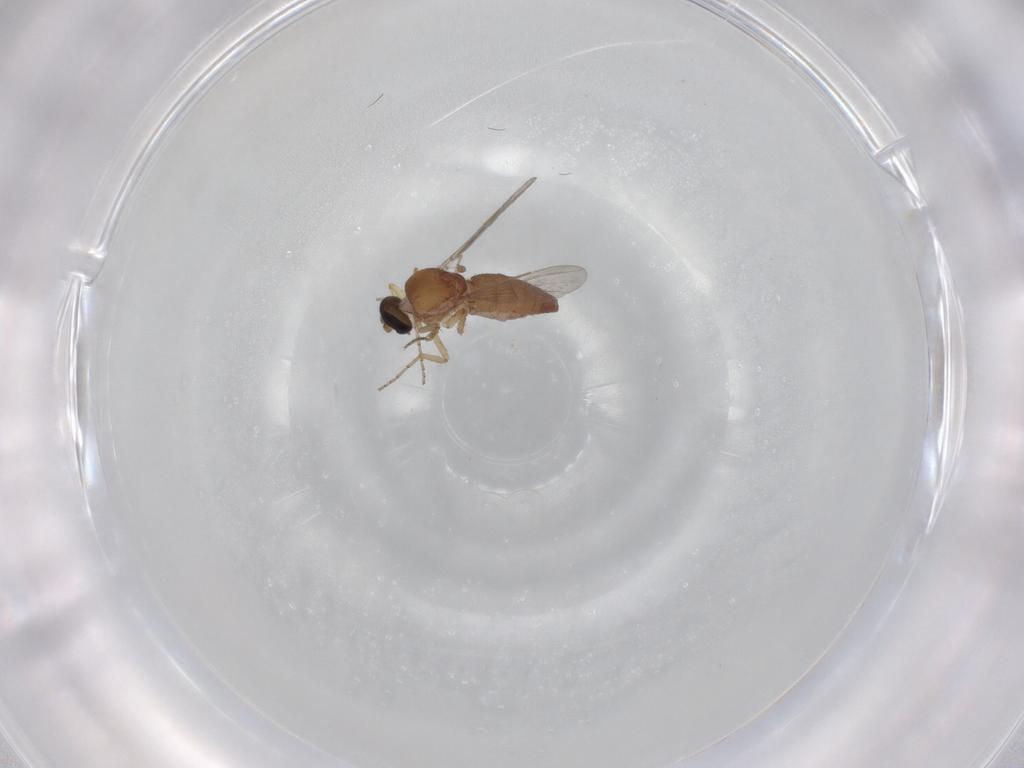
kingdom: Animalia
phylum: Arthropoda
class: Insecta
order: Diptera
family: Ceratopogonidae
